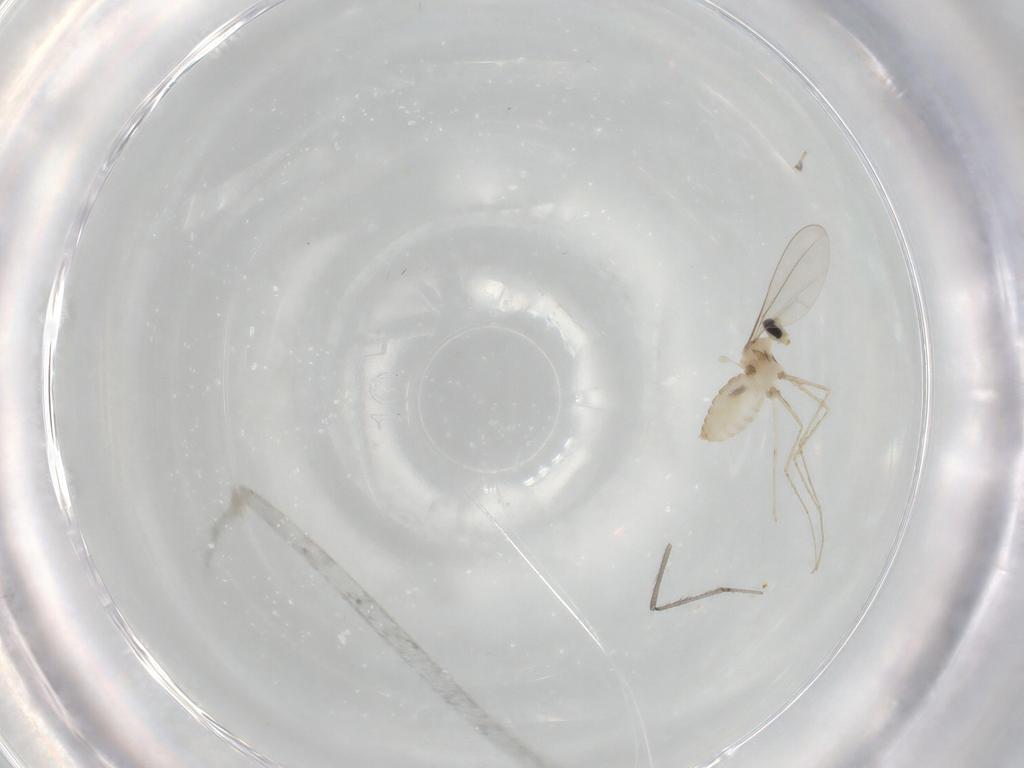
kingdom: Animalia
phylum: Arthropoda
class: Insecta
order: Diptera
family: Cecidomyiidae
